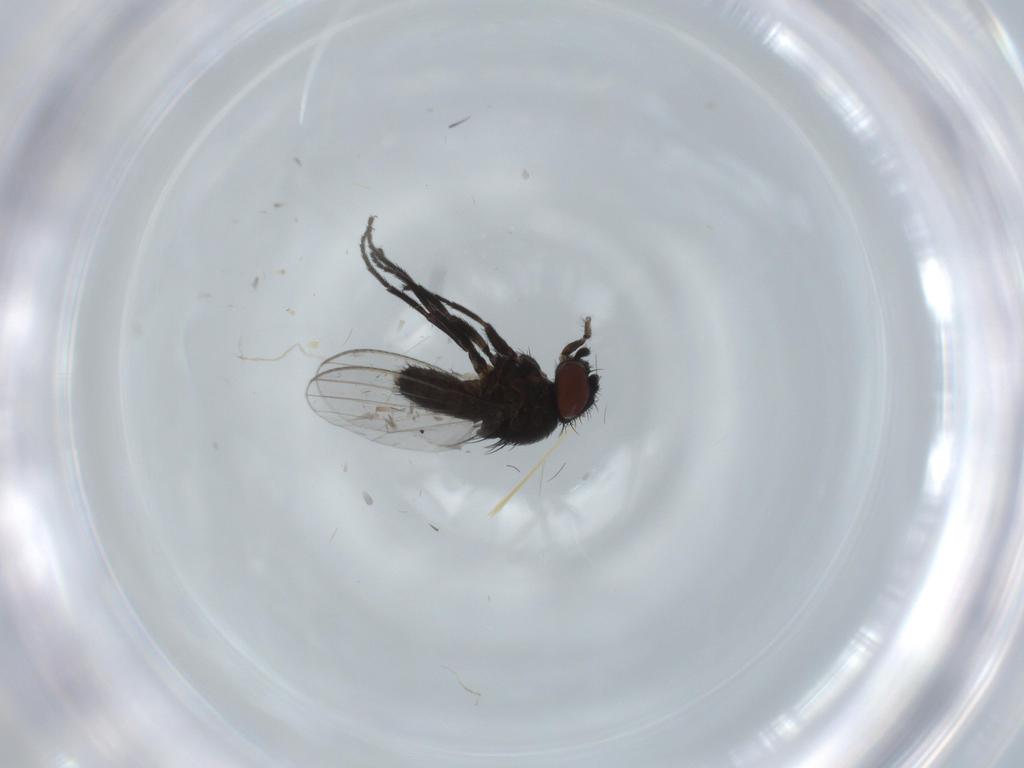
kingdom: Animalia
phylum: Arthropoda
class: Insecta
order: Diptera
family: Milichiidae
